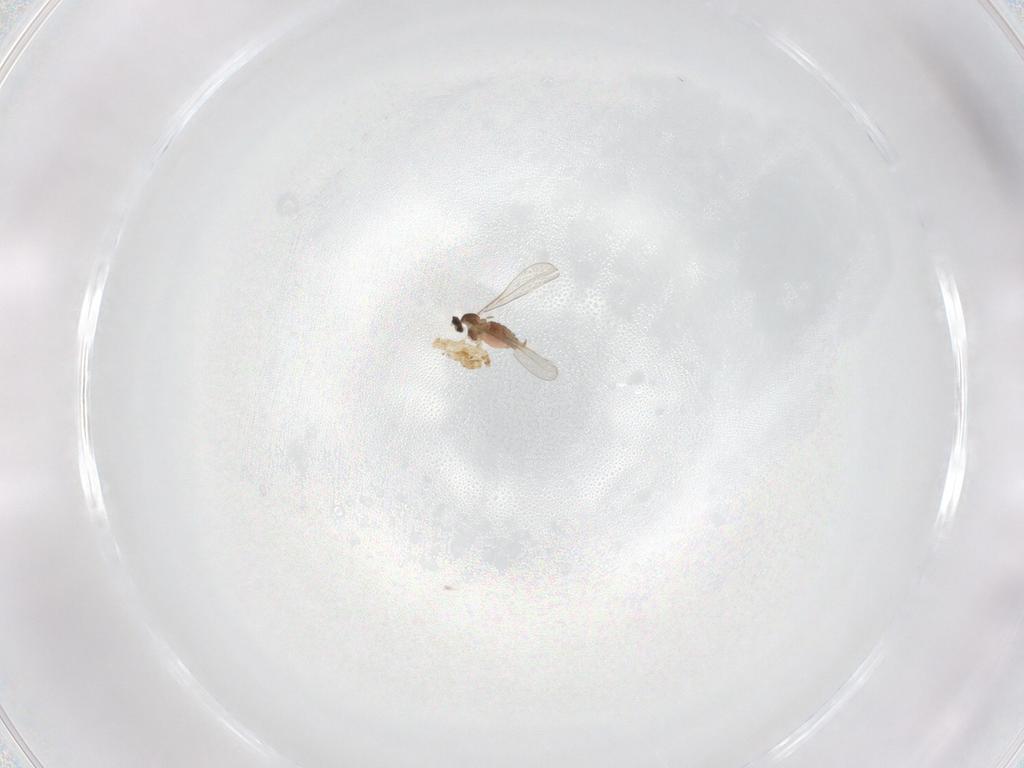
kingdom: Animalia
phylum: Arthropoda
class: Insecta
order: Diptera
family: Cecidomyiidae
